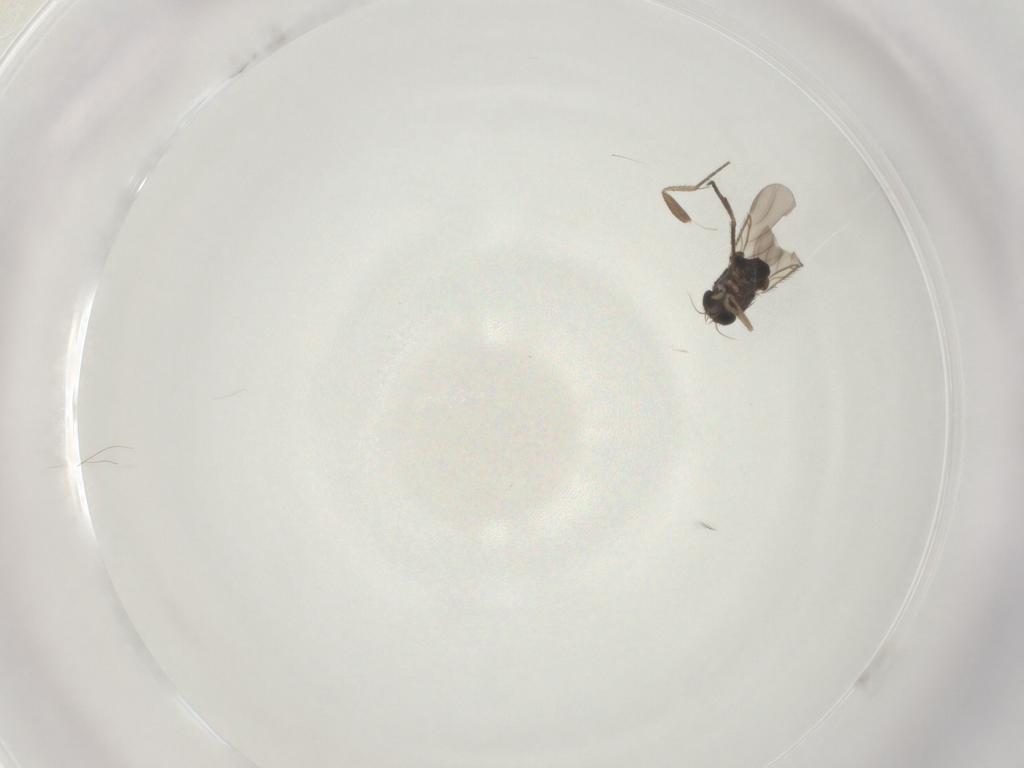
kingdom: Animalia
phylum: Arthropoda
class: Insecta
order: Diptera
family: Ceratopogonidae
